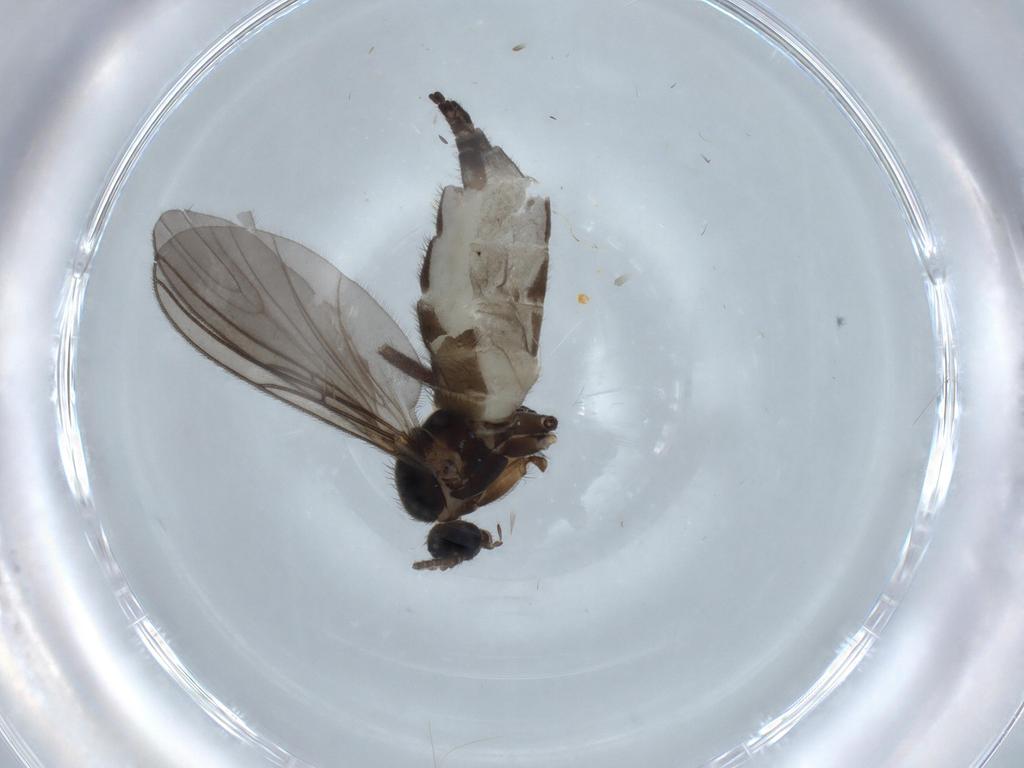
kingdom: Animalia
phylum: Arthropoda
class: Insecta
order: Diptera
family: Sciaridae
